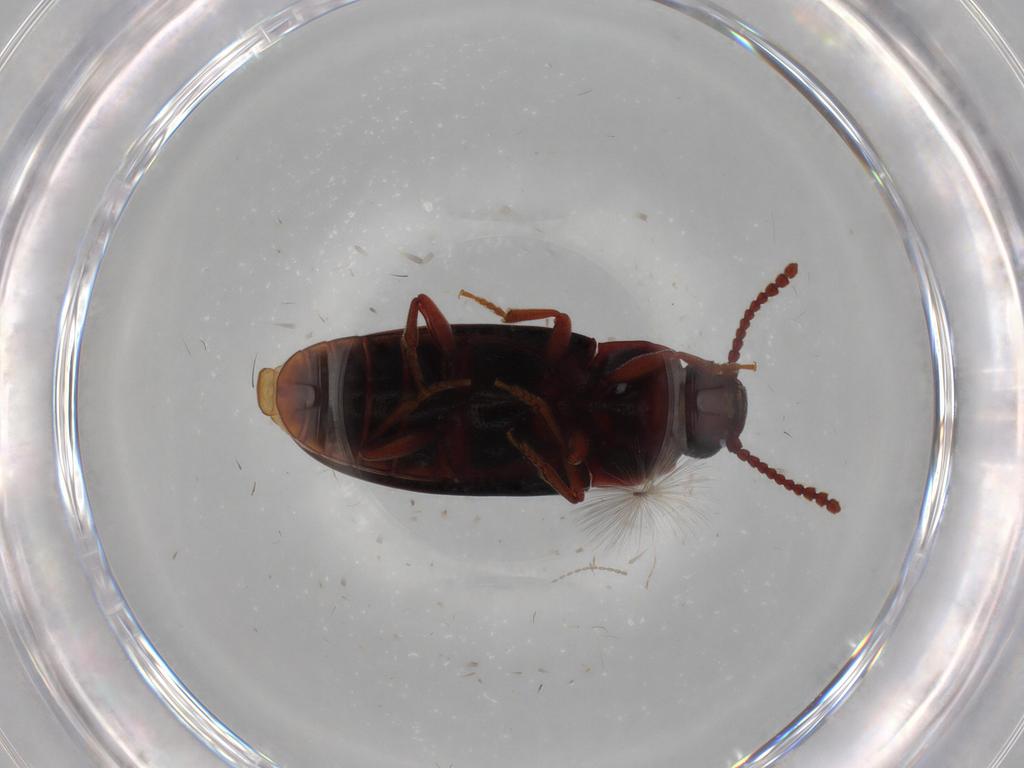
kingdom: Animalia
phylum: Arthropoda
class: Insecta
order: Coleoptera
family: Erotylidae
